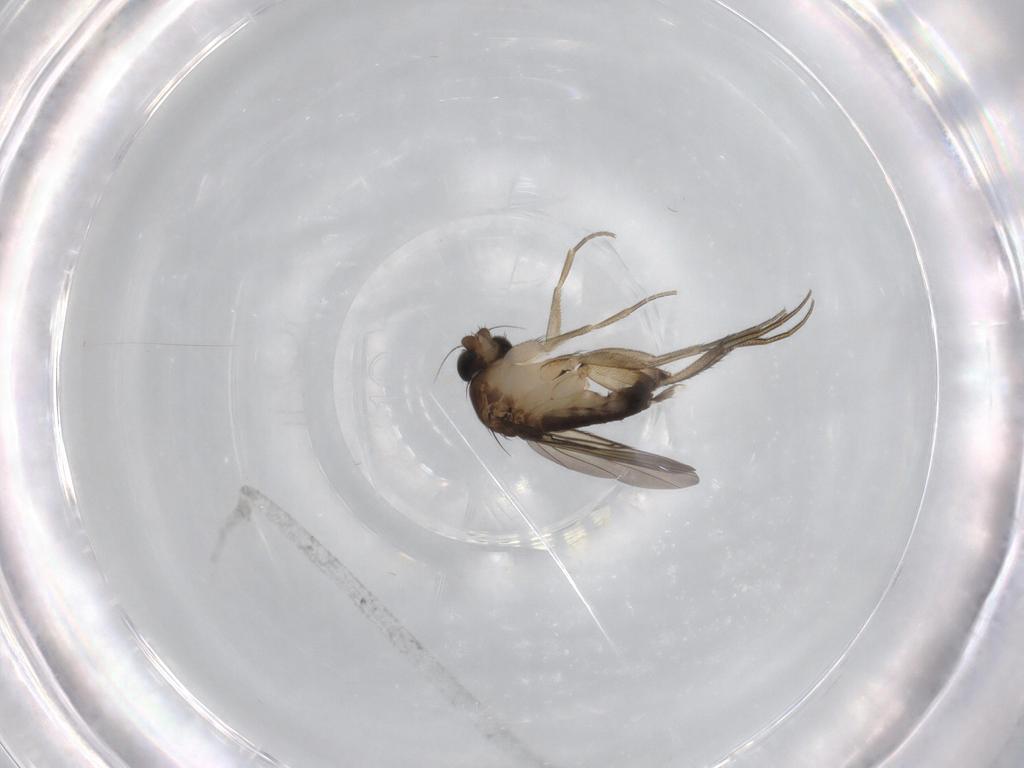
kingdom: Animalia
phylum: Arthropoda
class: Insecta
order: Diptera
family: Phoridae
